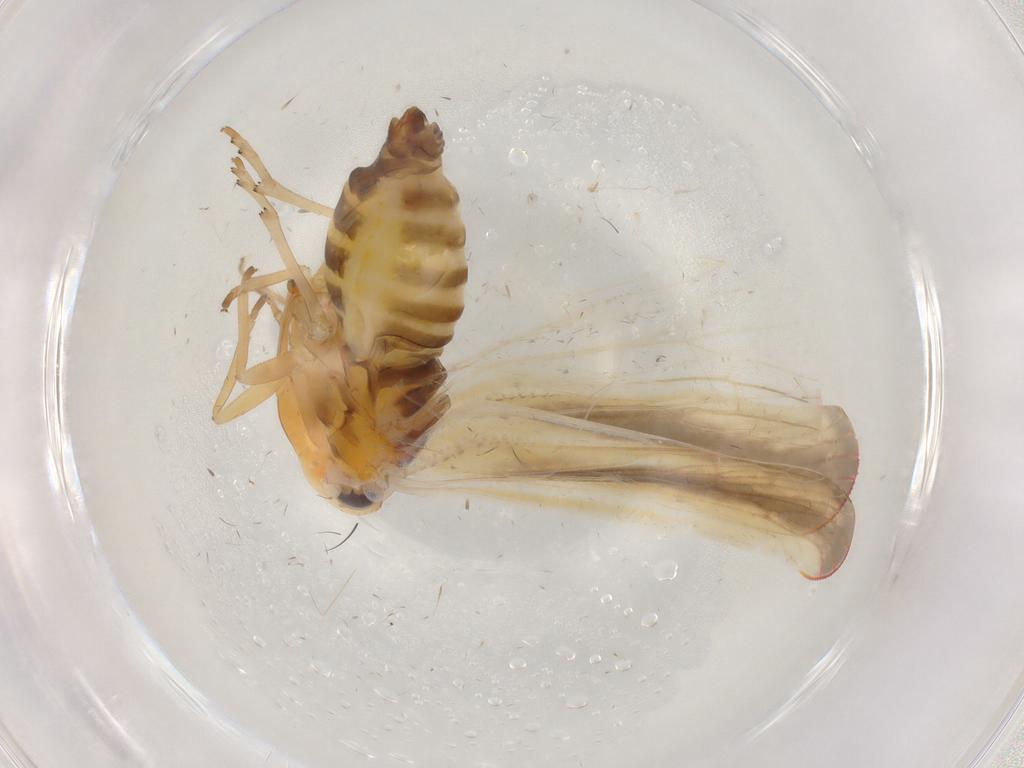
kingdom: Animalia
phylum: Arthropoda
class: Insecta
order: Hemiptera
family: Derbidae
